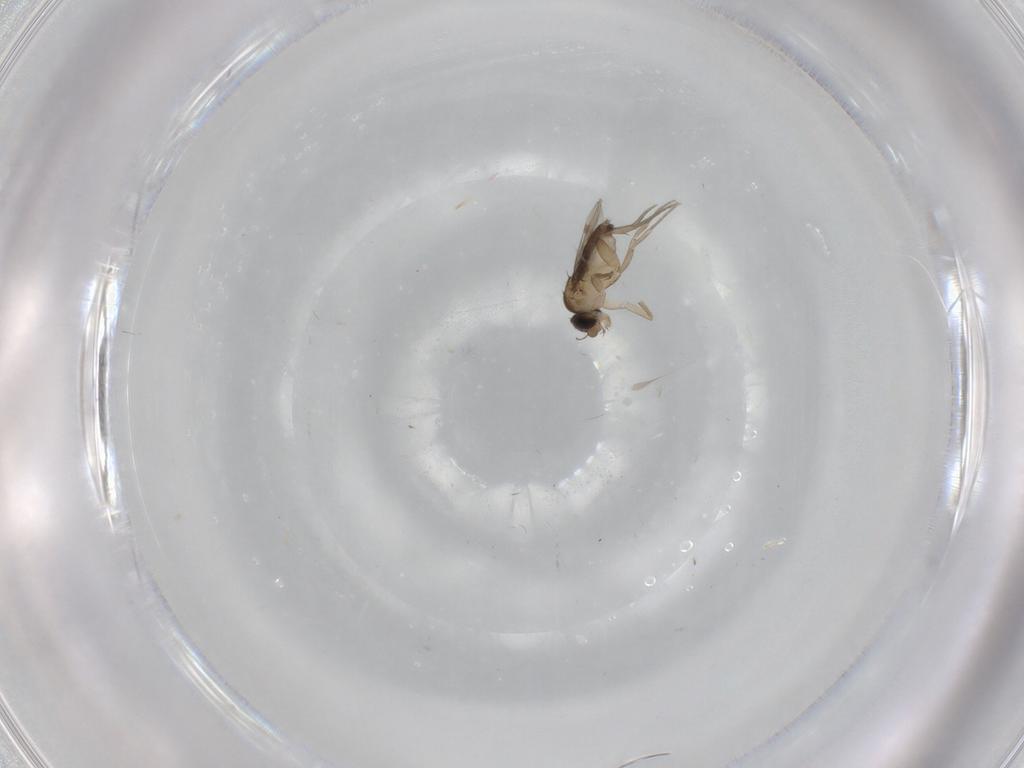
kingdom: Animalia
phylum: Arthropoda
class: Insecta
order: Diptera
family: Phoridae
